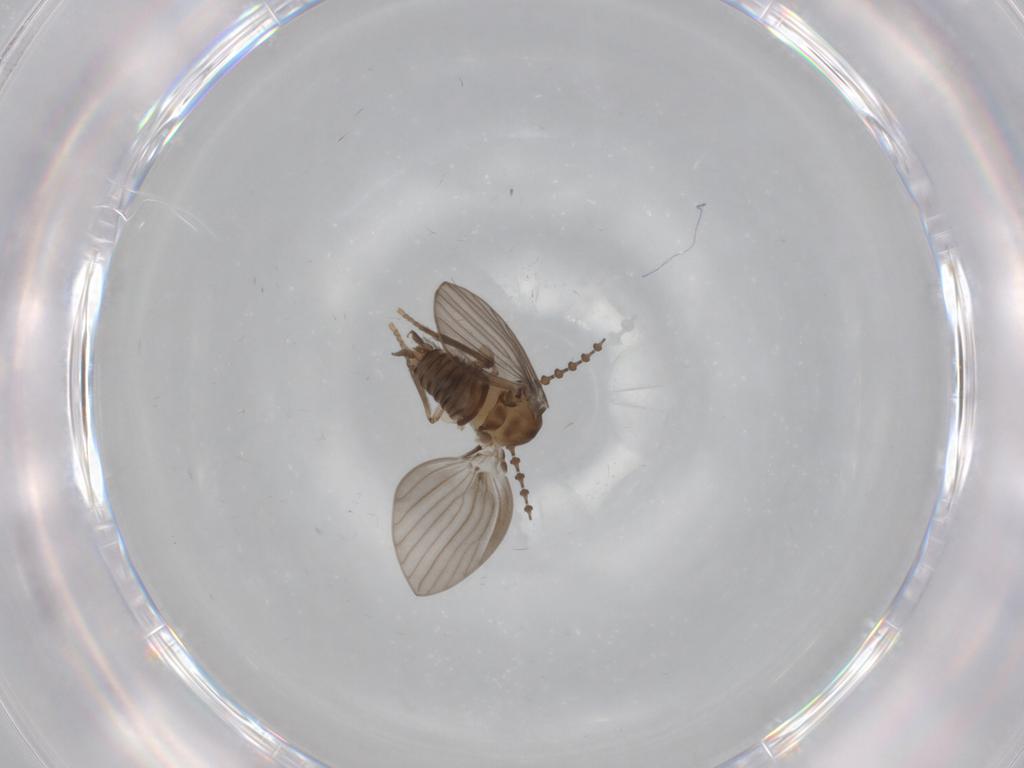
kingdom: Animalia
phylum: Arthropoda
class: Insecta
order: Diptera
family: Psychodidae
